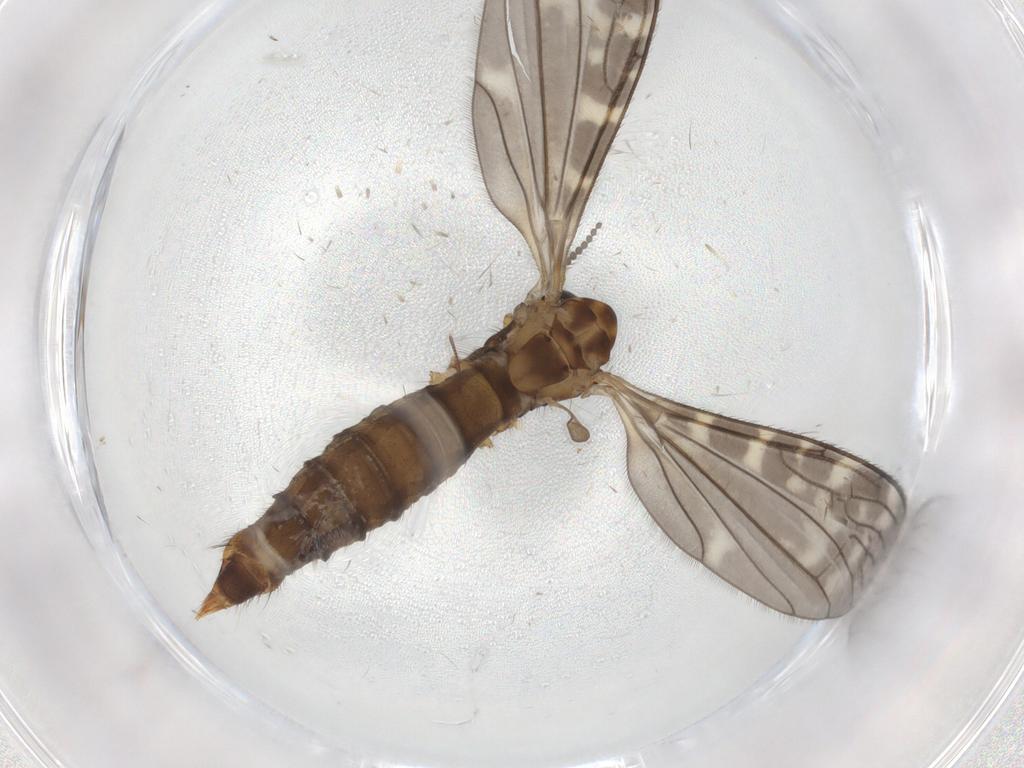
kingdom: Animalia
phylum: Arthropoda
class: Insecta
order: Diptera
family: Limoniidae
